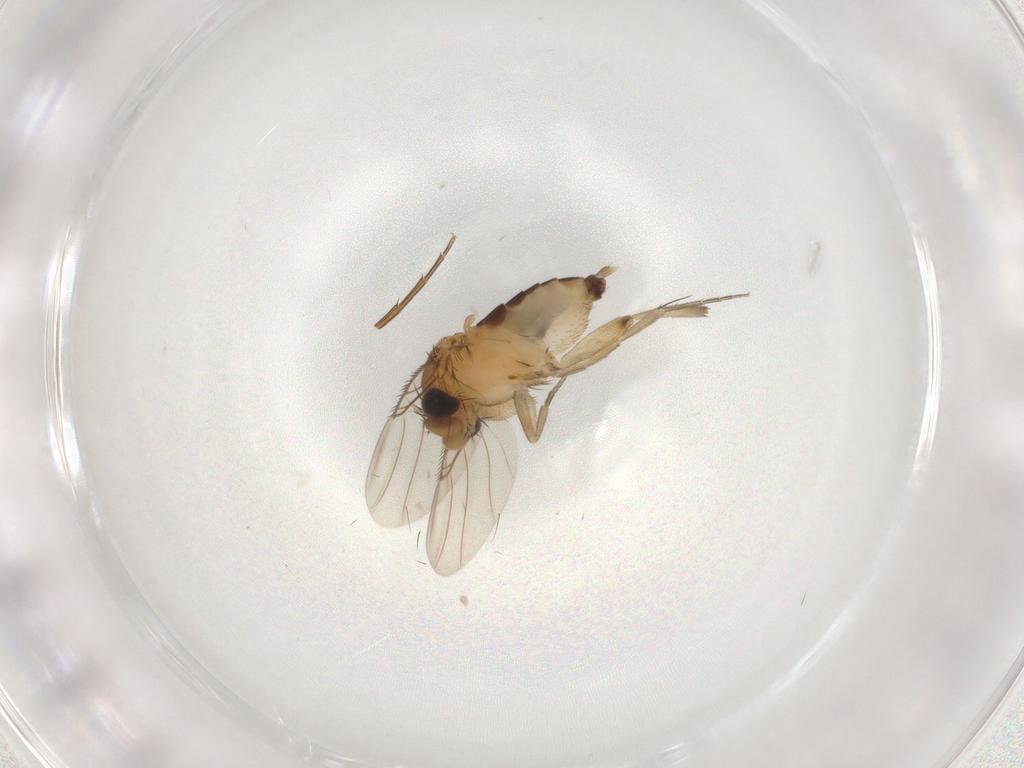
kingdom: Animalia
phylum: Arthropoda
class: Insecta
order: Diptera
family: Phoridae
